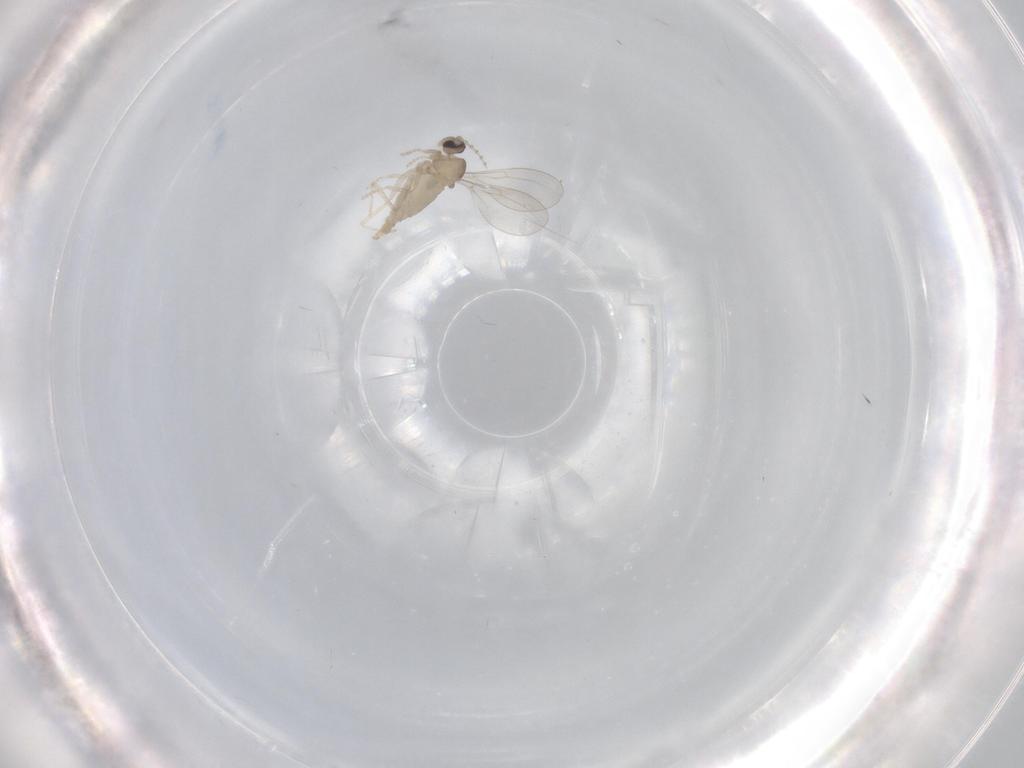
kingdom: Animalia
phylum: Arthropoda
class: Insecta
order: Diptera
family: Cecidomyiidae
